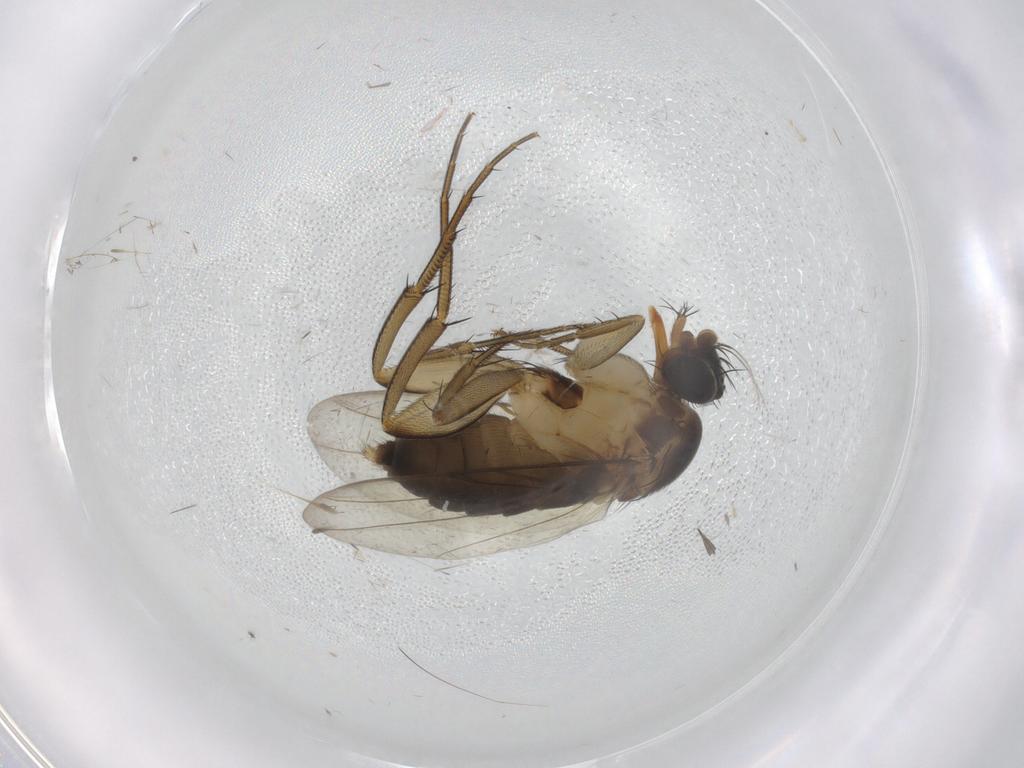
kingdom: Animalia
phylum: Arthropoda
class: Insecta
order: Diptera
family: Phoridae
